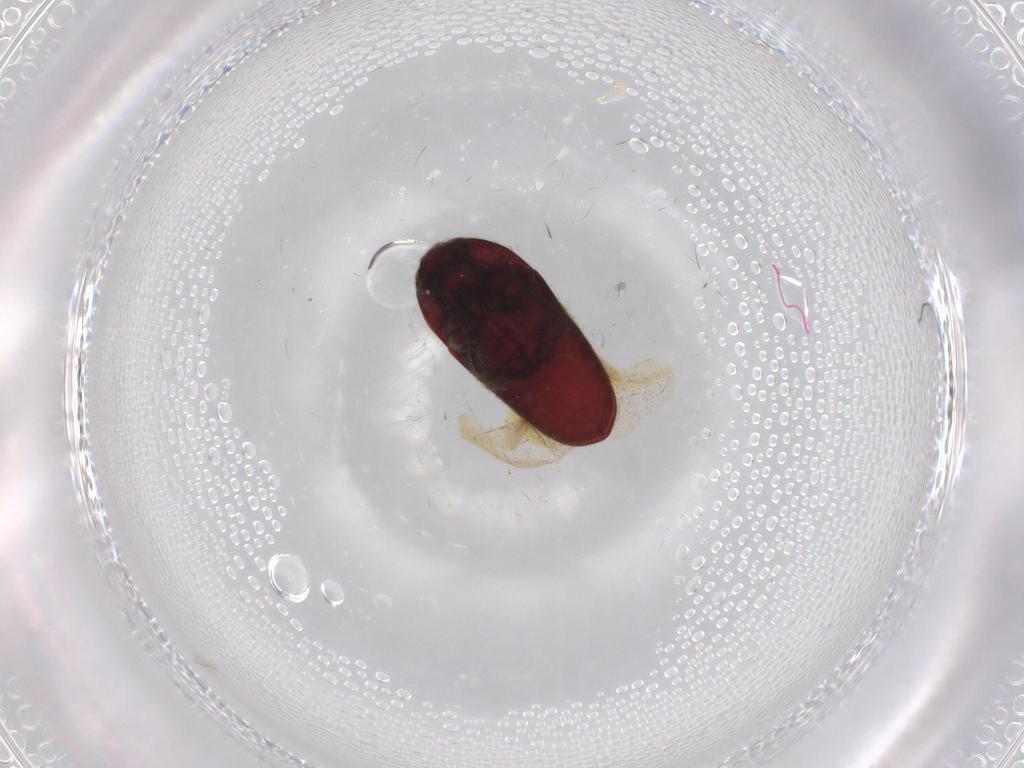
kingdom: Animalia
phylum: Arthropoda
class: Insecta
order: Coleoptera
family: Throscidae
